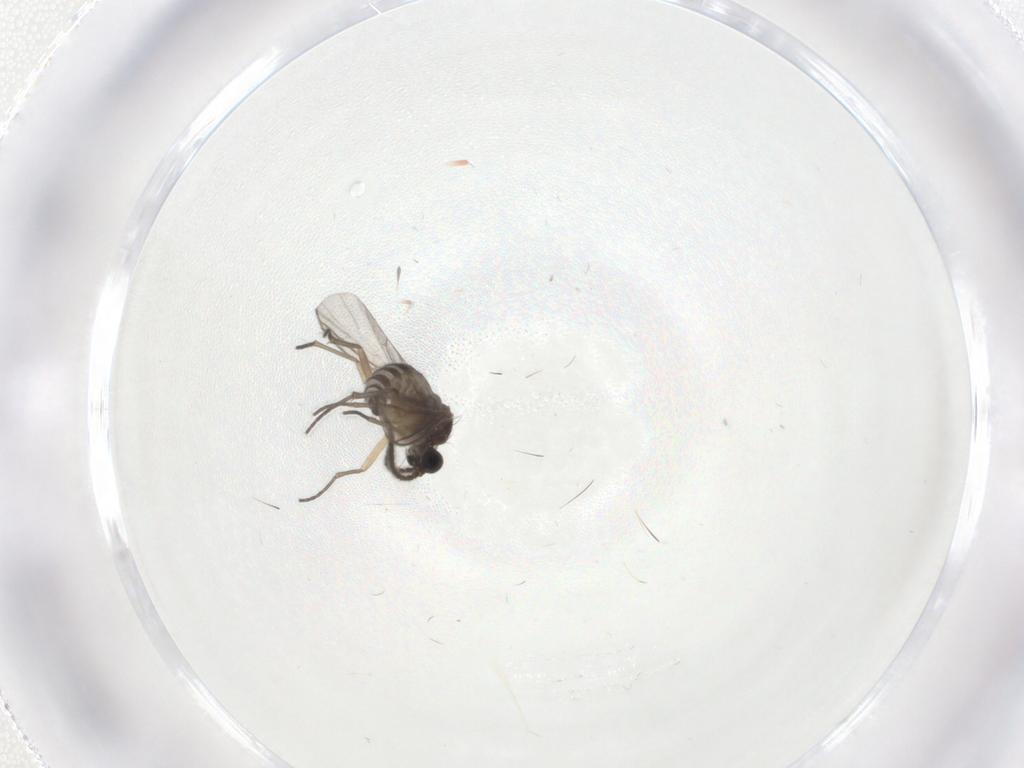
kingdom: Animalia
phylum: Arthropoda
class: Insecta
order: Diptera
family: Sciaridae
